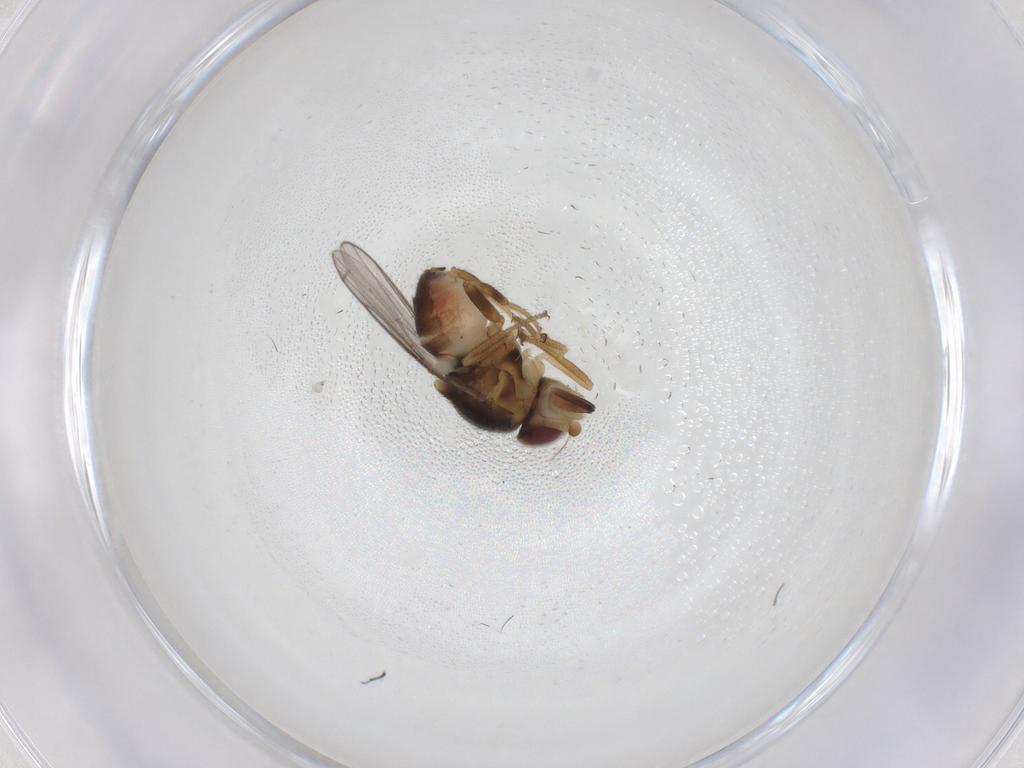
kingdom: Animalia
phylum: Arthropoda
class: Insecta
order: Diptera
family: Chloropidae
